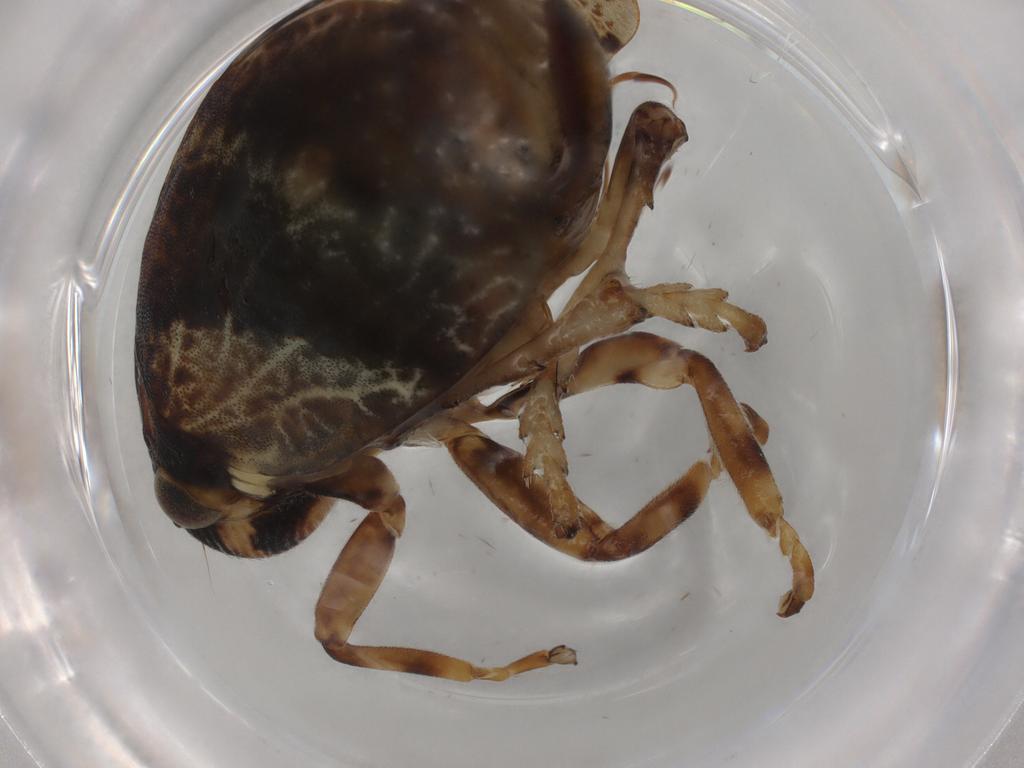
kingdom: Animalia
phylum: Arthropoda
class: Insecta
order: Hemiptera
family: Aphrophoridae
